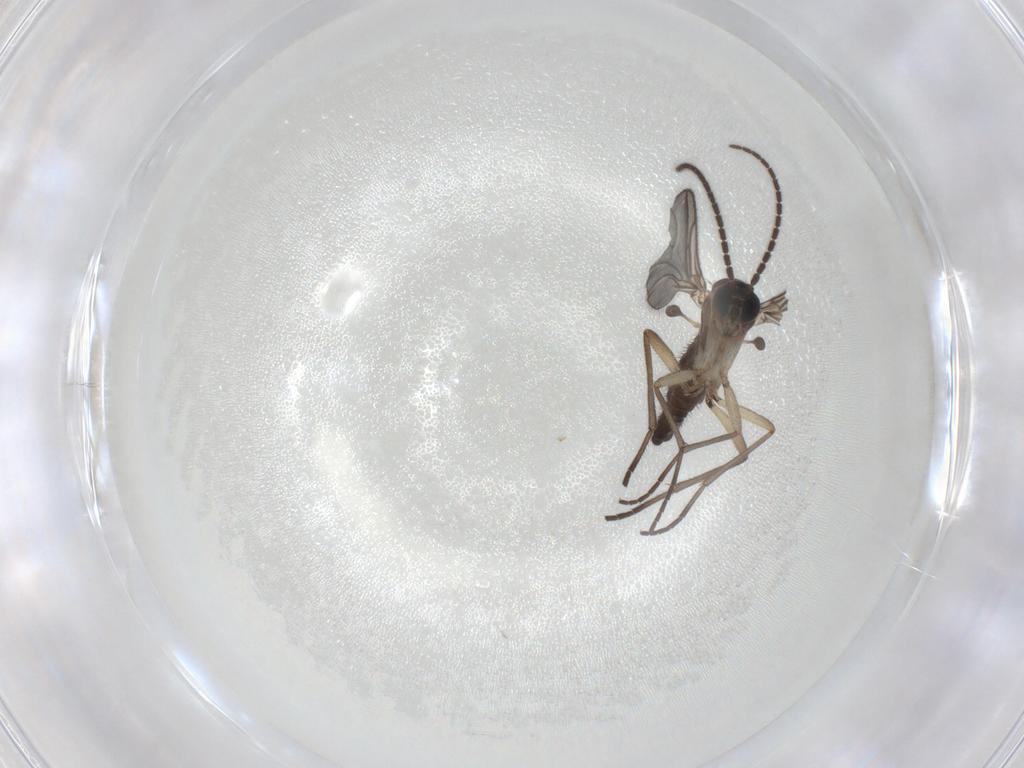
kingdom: Animalia
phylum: Arthropoda
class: Insecta
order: Diptera
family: Sciaridae
